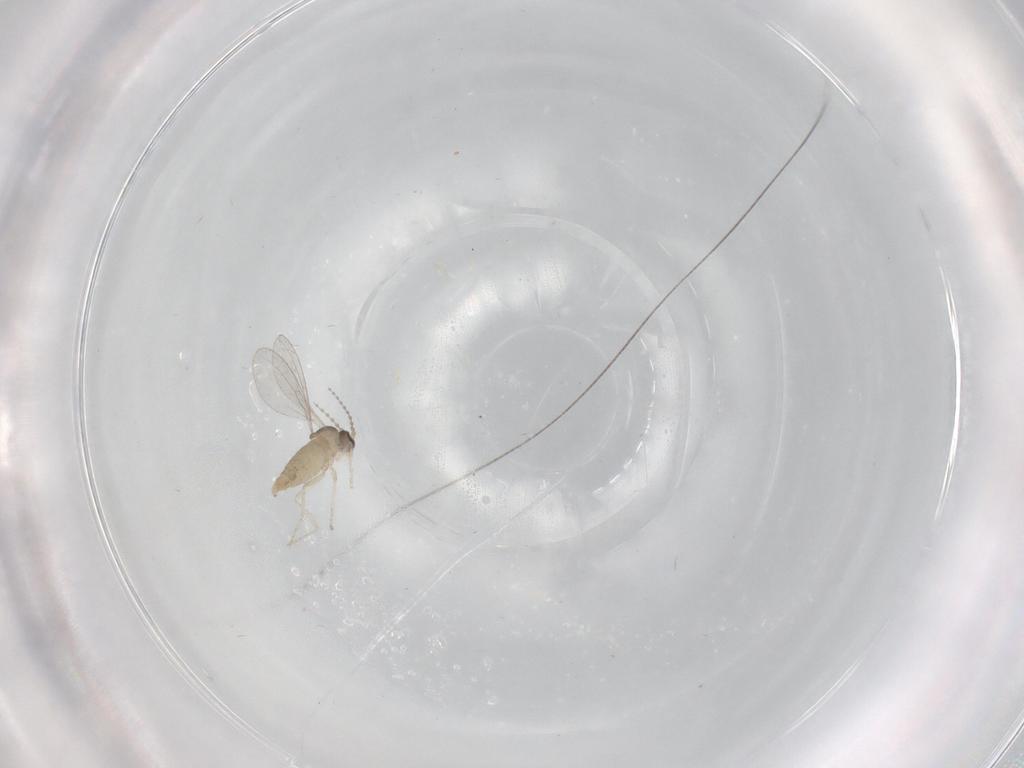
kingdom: Animalia
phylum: Arthropoda
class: Insecta
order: Diptera
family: Cecidomyiidae
